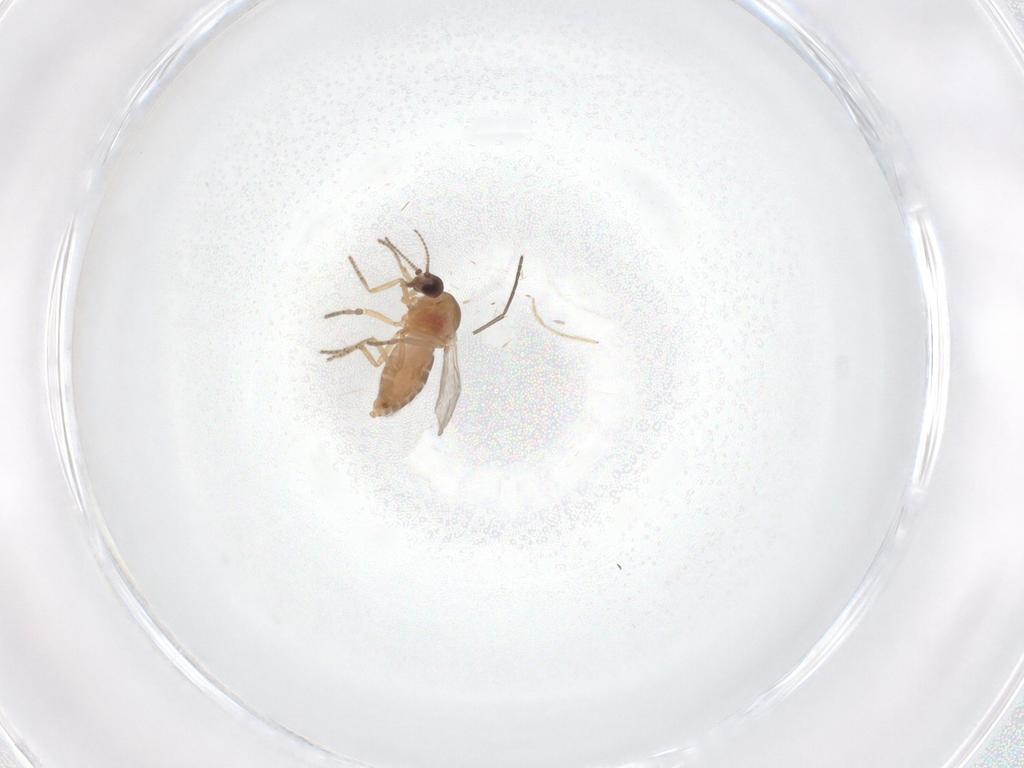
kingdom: Animalia
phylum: Arthropoda
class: Insecta
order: Diptera
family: Ceratopogonidae
